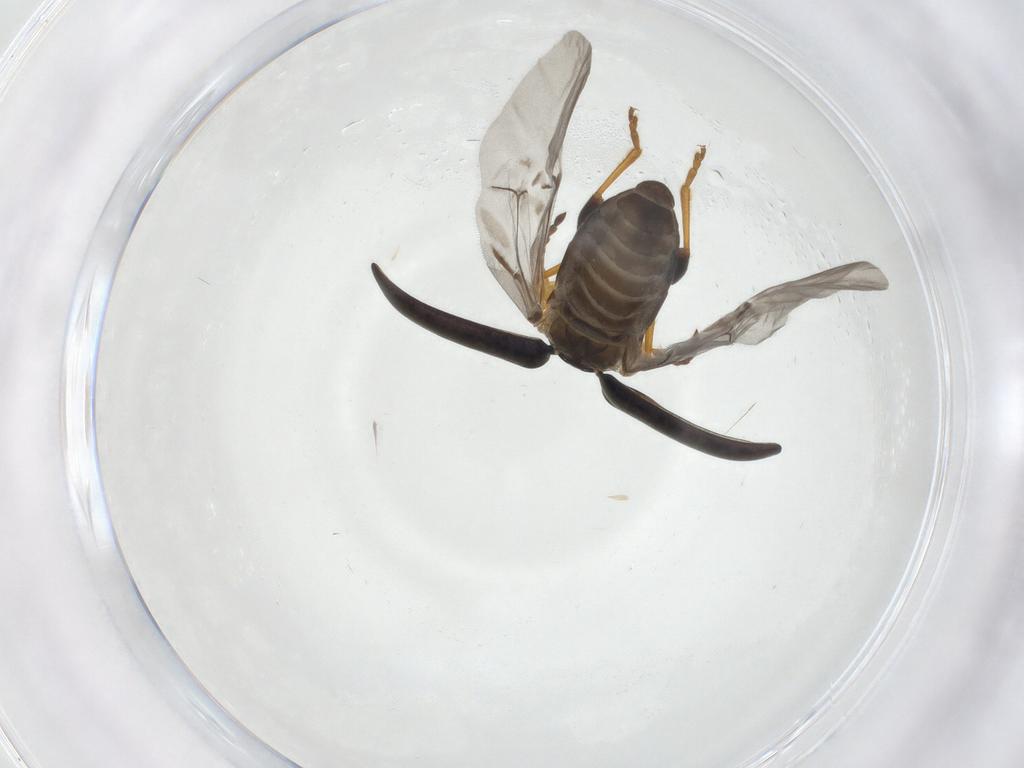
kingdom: Animalia
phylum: Arthropoda
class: Insecta
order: Coleoptera
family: Chrysomelidae
